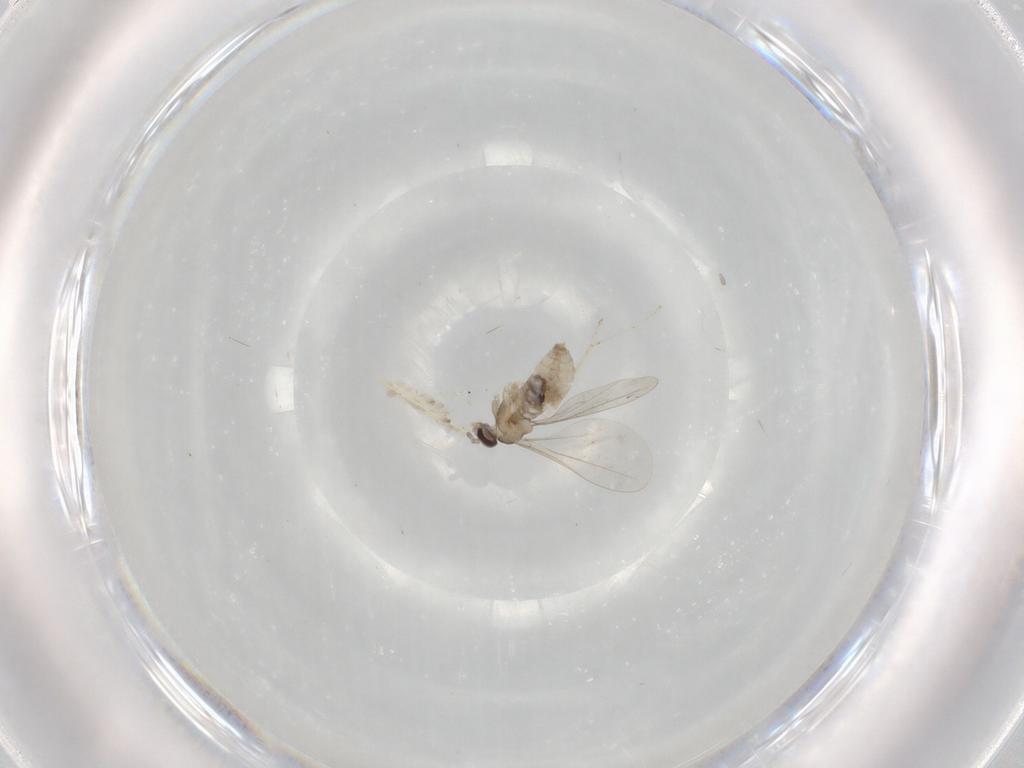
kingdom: Animalia
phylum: Arthropoda
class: Insecta
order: Diptera
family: Cecidomyiidae
